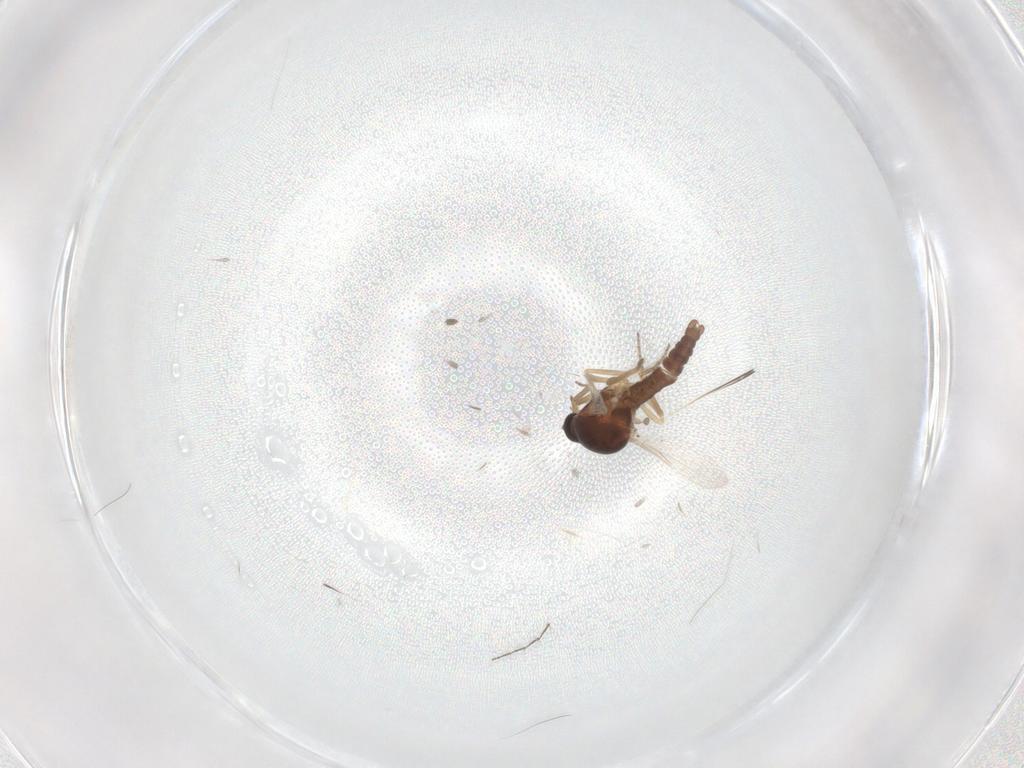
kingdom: Animalia
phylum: Arthropoda
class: Insecta
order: Diptera
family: Ceratopogonidae
